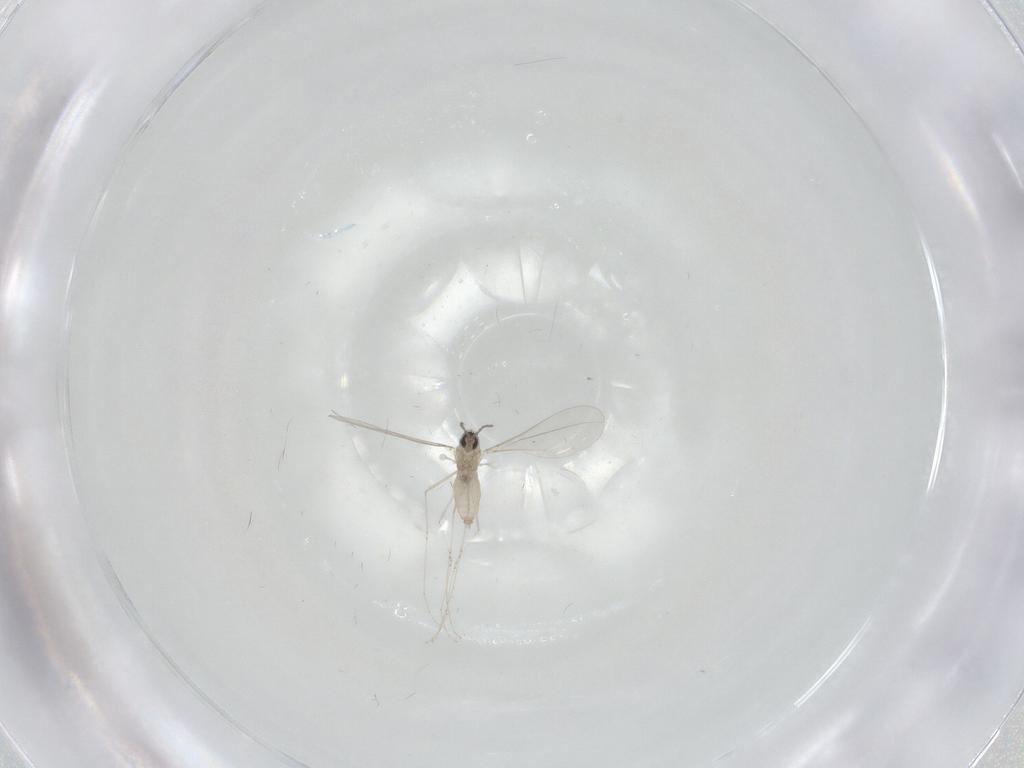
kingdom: Animalia
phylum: Arthropoda
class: Insecta
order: Diptera
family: Cecidomyiidae
